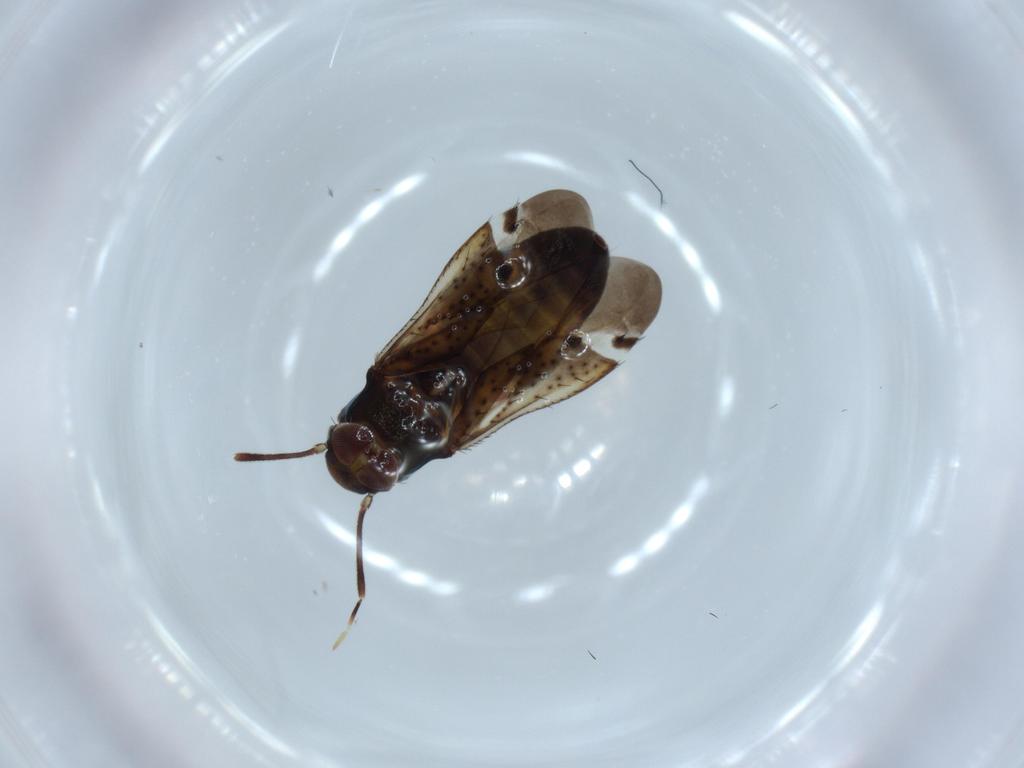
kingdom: Animalia
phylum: Arthropoda
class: Insecta
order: Hemiptera
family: Miridae
